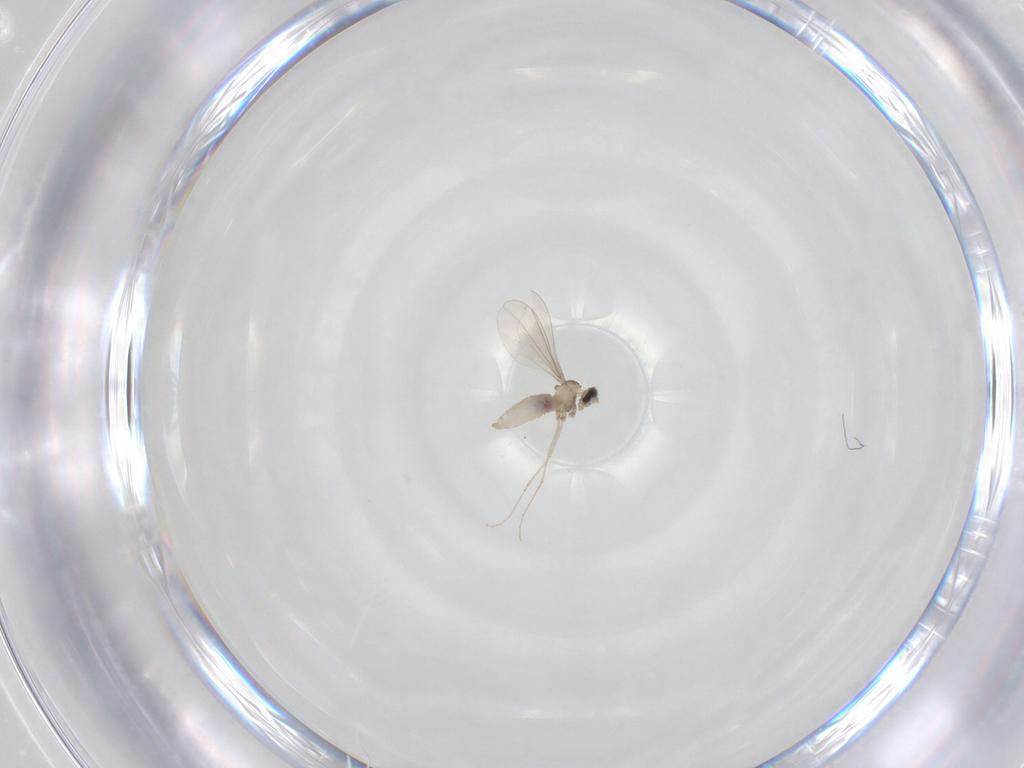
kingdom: Animalia
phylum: Arthropoda
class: Insecta
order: Diptera
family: Cecidomyiidae
